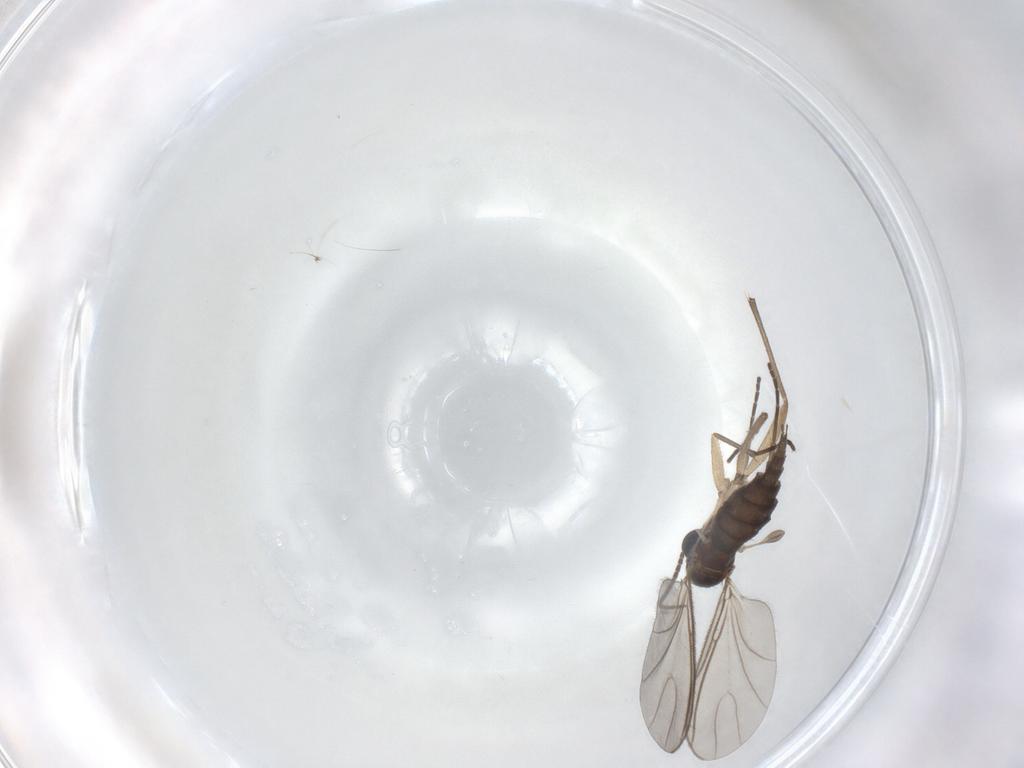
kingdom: Animalia
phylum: Arthropoda
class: Insecta
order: Diptera
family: Sciaridae
